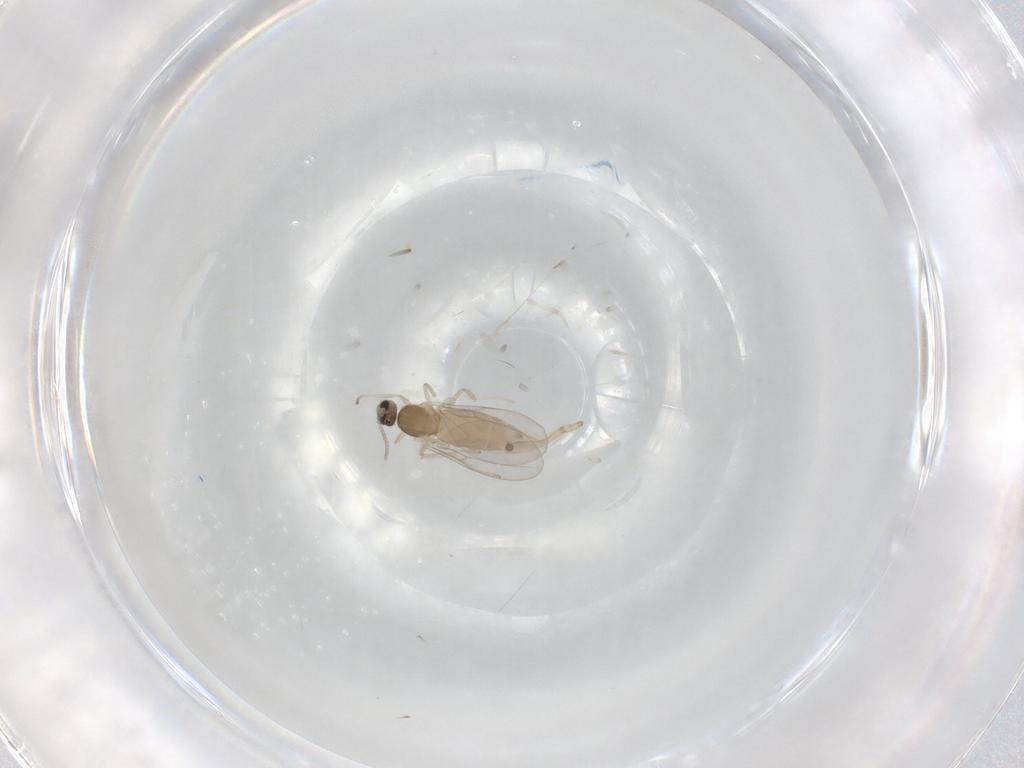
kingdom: Animalia
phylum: Arthropoda
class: Insecta
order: Diptera
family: Cecidomyiidae
